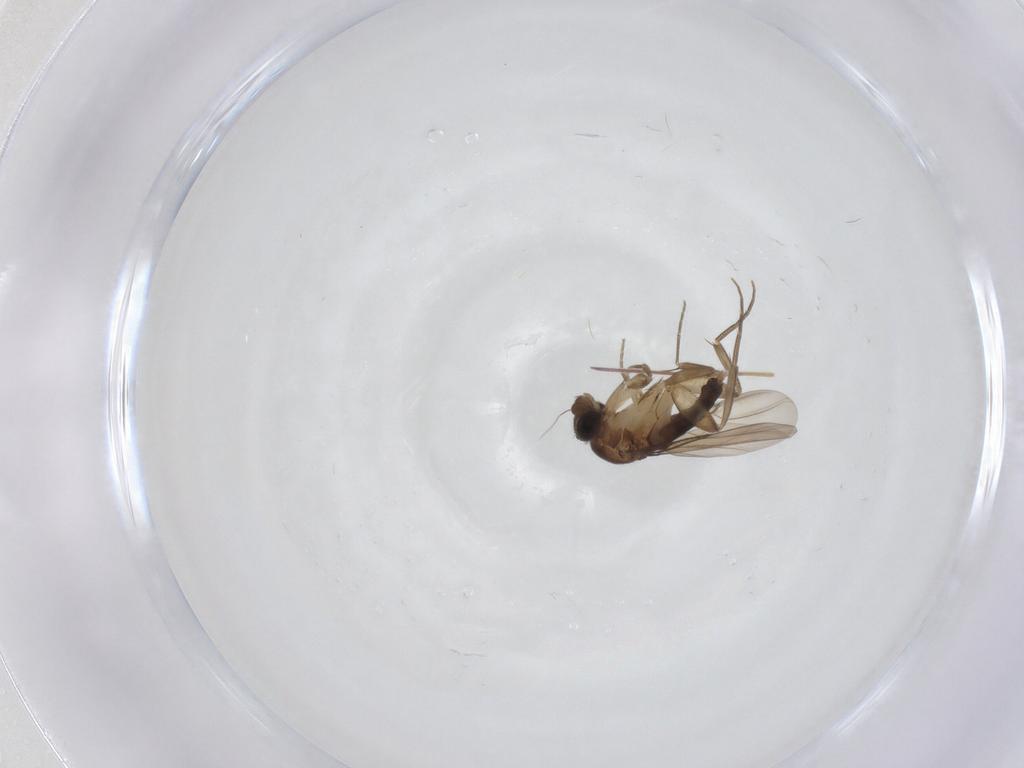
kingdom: Animalia
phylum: Arthropoda
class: Insecta
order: Diptera
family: Phoridae
